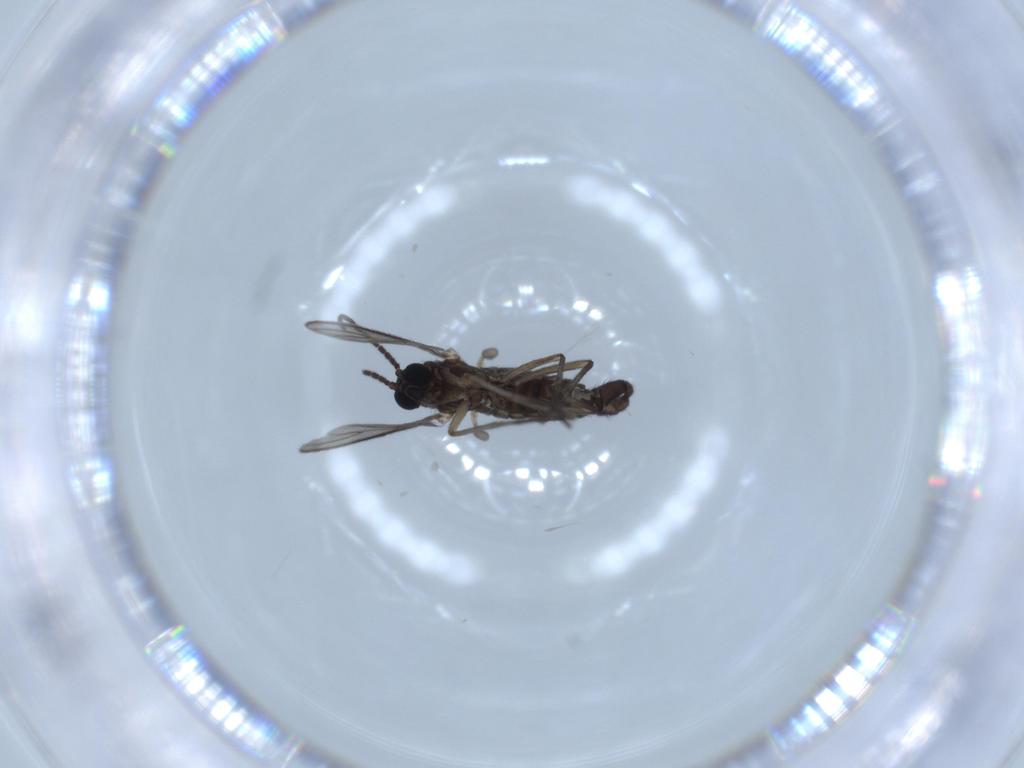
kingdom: Animalia
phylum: Arthropoda
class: Insecta
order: Diptera
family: Sciaridae
